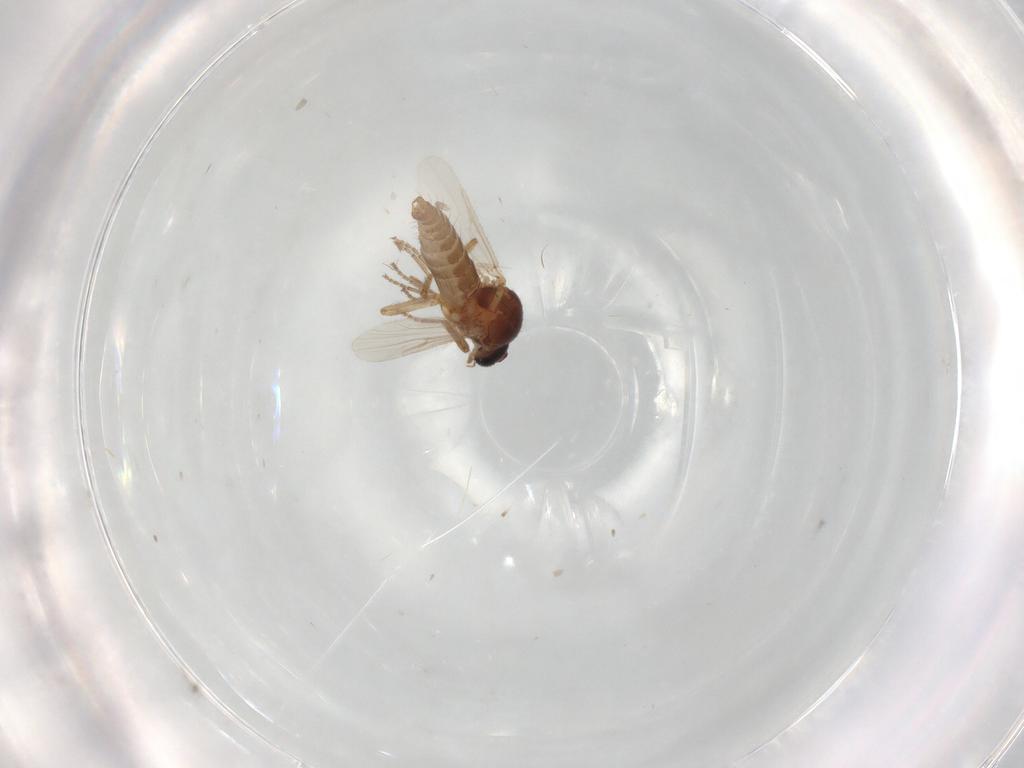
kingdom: Animalia
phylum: Arthropoda
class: Insecta
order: Diptera
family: Ceratopogonidae
